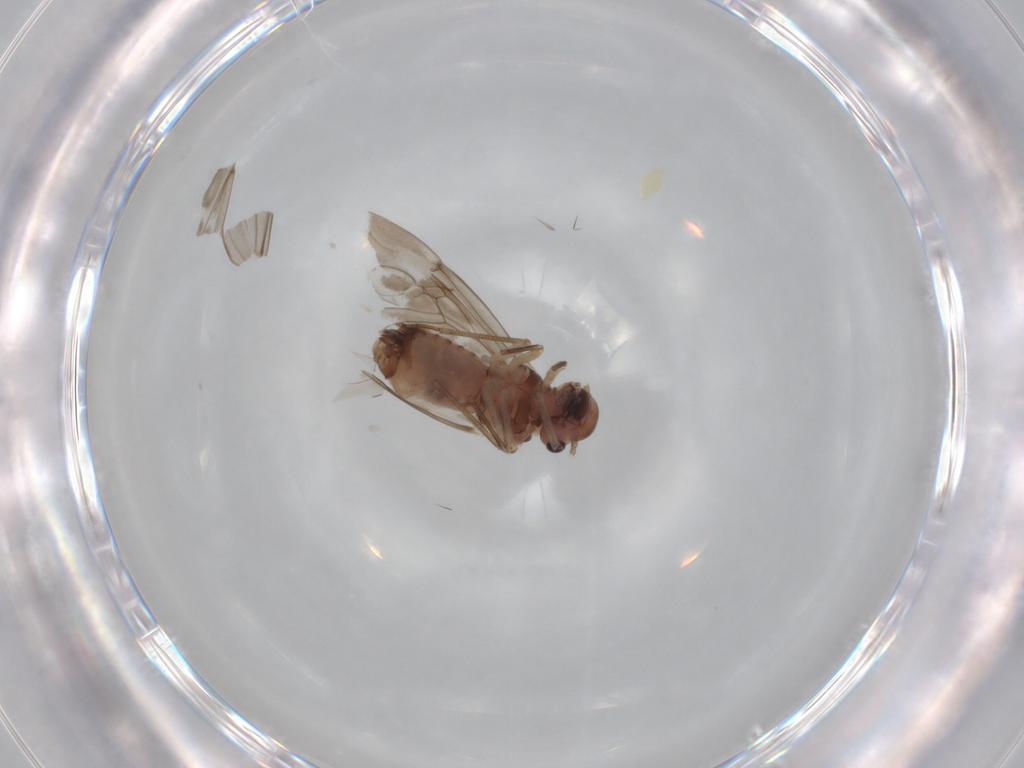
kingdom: Animalia
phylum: Arthropoda
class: Insecta
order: Psocodea
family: Peripsocidae
